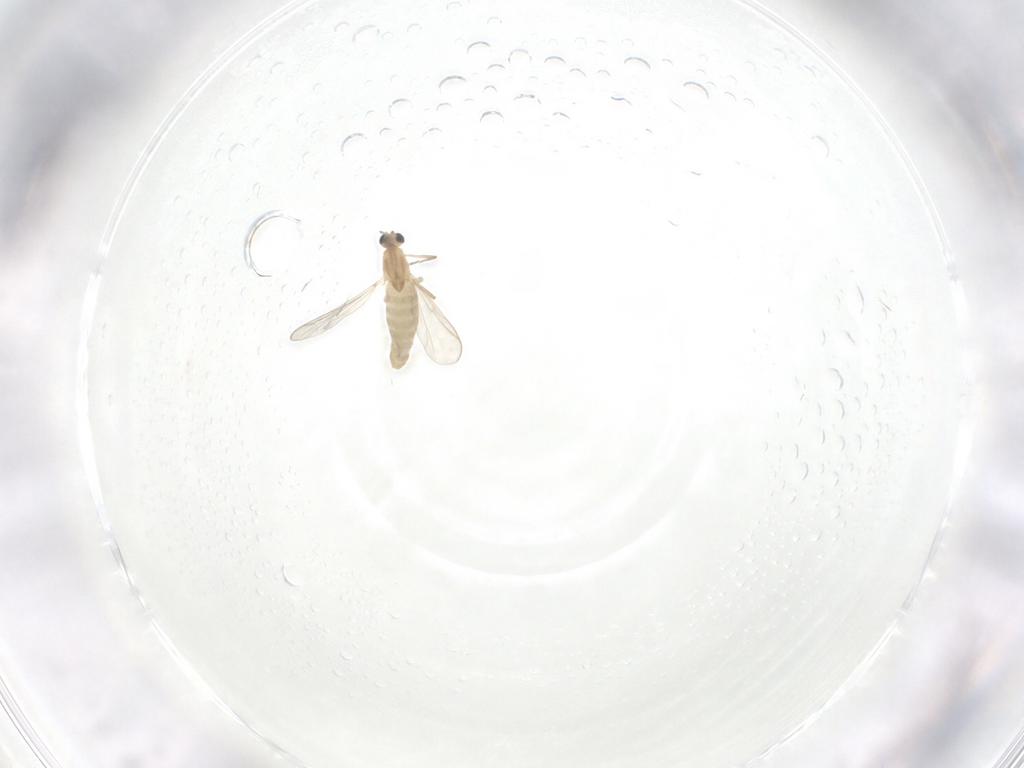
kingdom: Animalia
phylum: Arthropoda
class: Insecta
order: Diptera
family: Chironomidae
